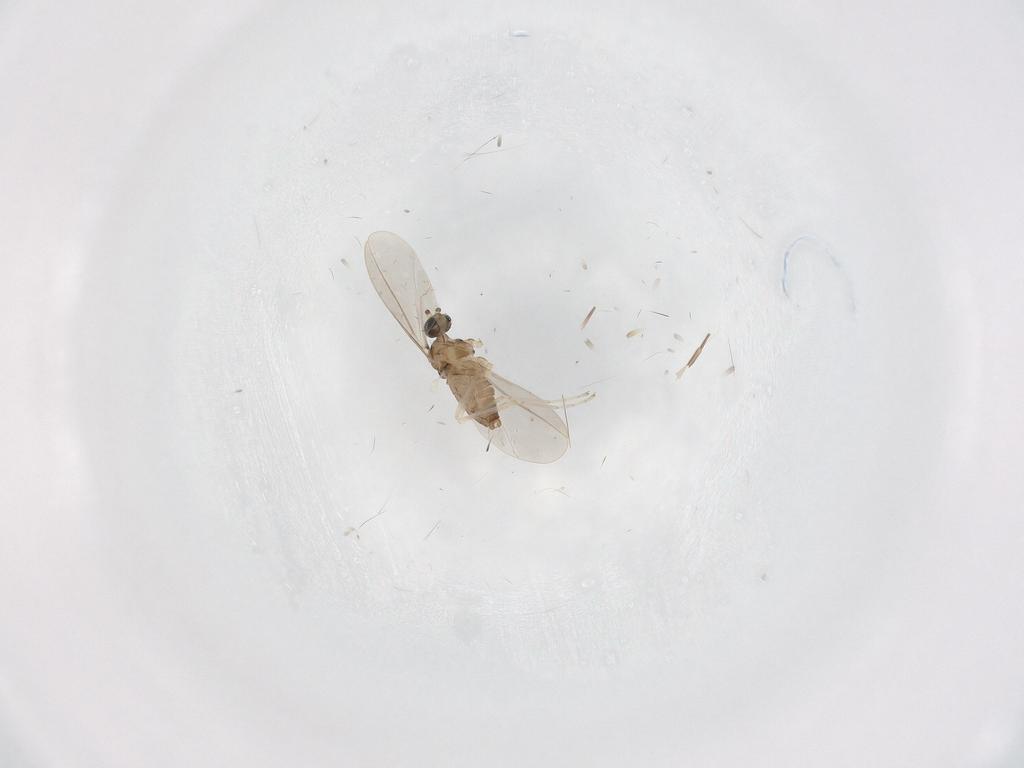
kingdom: Animalia
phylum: Arthropoda
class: Insecta
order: Diptera
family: Cecidomyiidae
